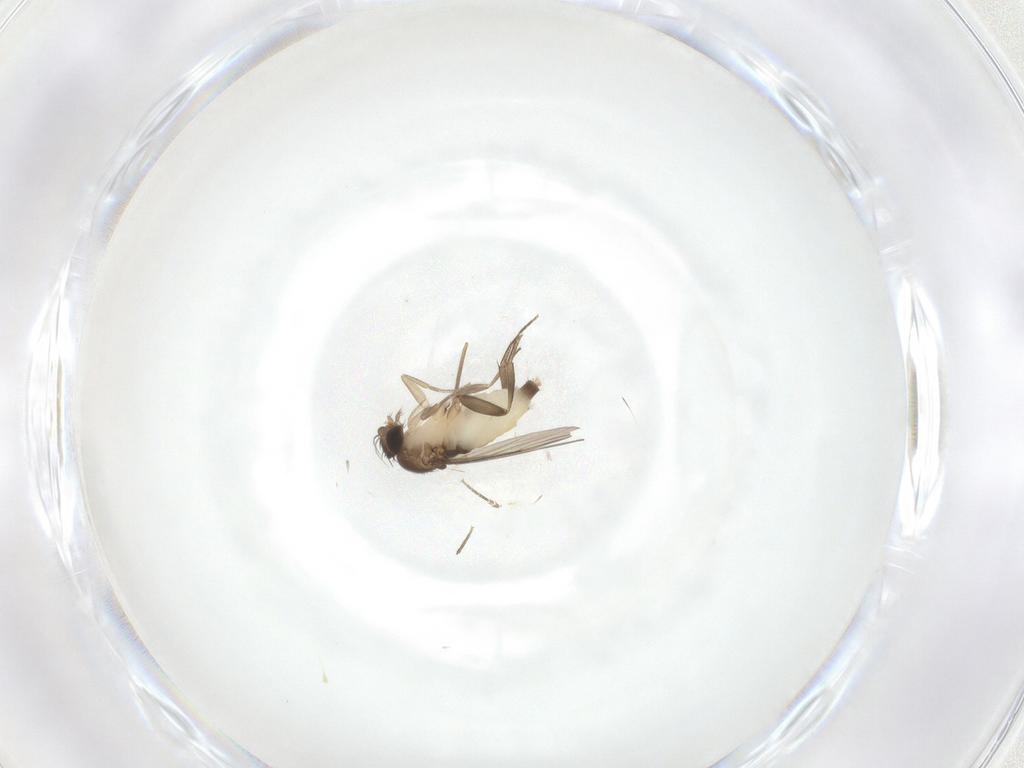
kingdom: Animalia
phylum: Arthropoda
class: Insecta
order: Diptera
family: Phoridae
